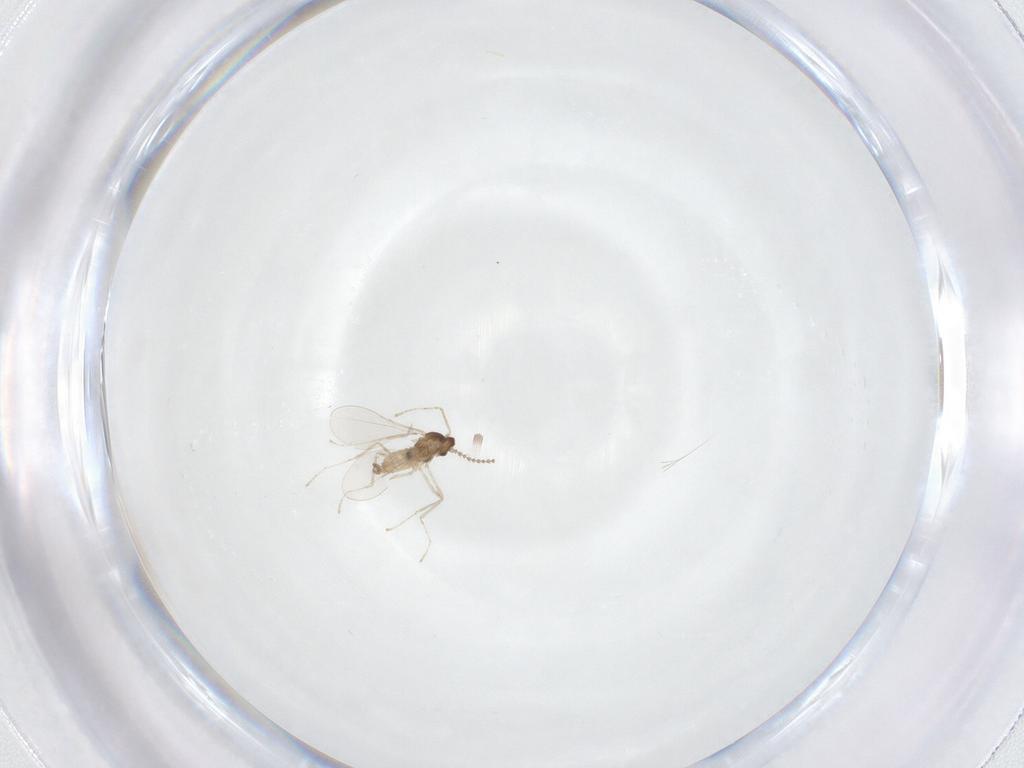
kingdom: Animalia
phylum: Arthropoda
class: Insecta
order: Diptera
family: Cecidomyiidae
